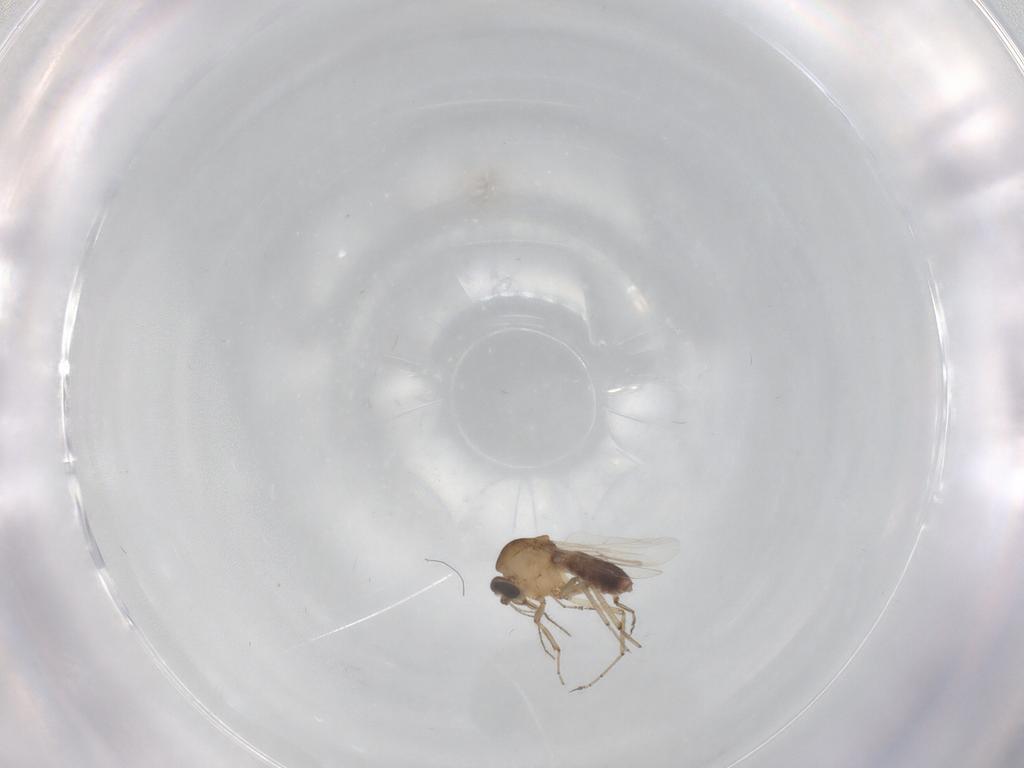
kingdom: Animalia
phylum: Arthropoda
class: Insecta
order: Diptera
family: Ceratopogonidae
